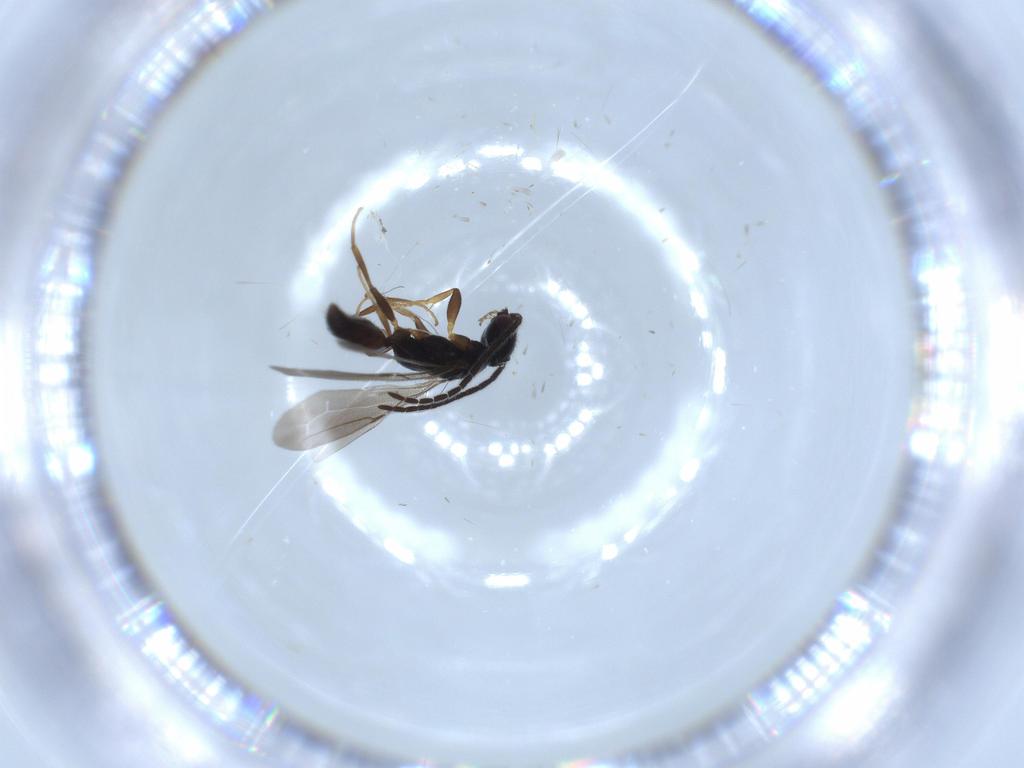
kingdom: Animalia
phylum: Arthropoda
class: Insecta
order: Hymenoptera
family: Bethylidae
